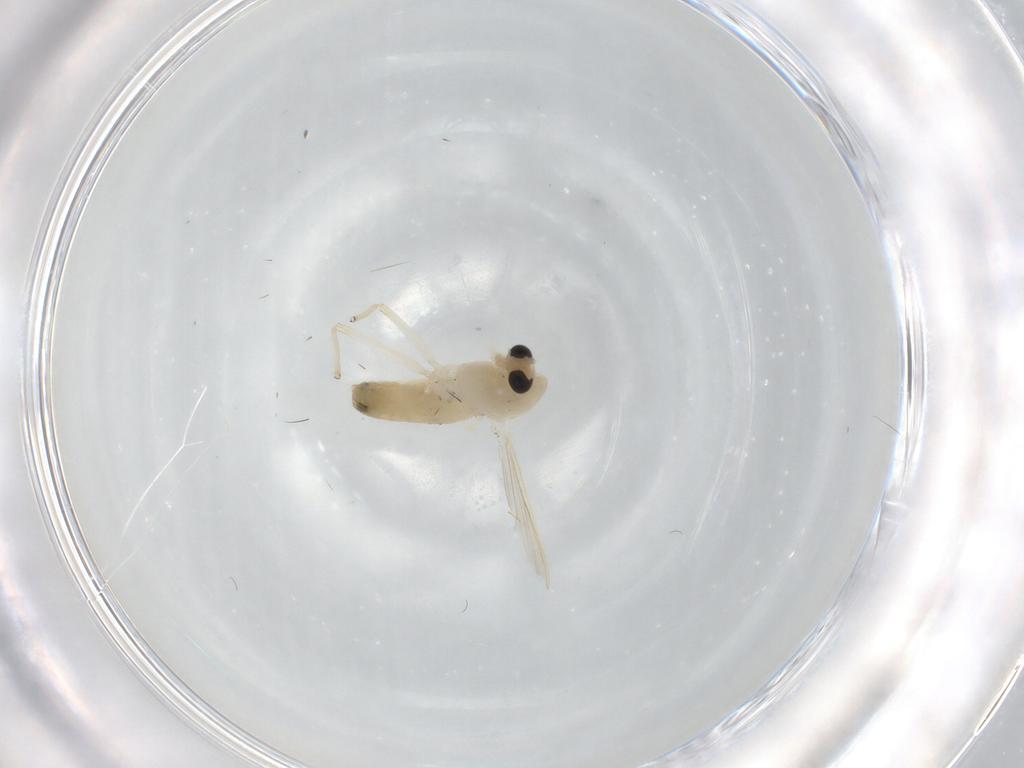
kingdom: Animalia
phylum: Arthropoda
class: Insecta
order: Diptera
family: Chironomidae
